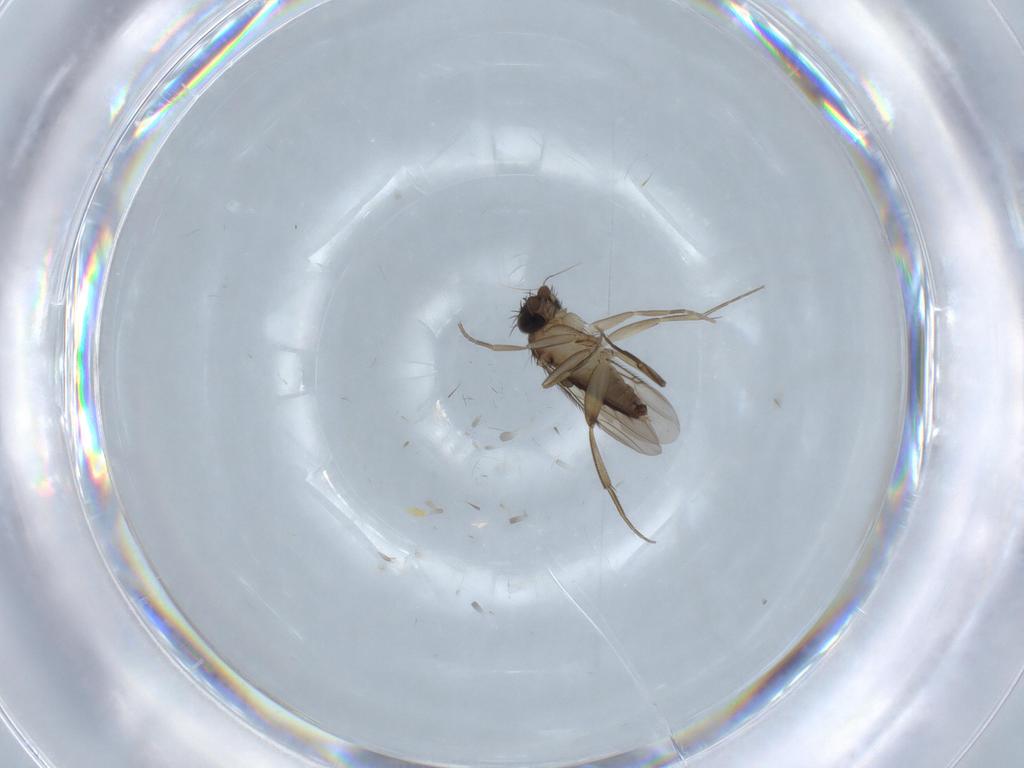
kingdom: Animalia
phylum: Arthropoda
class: Insecta
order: Diptera
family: Phoridae
